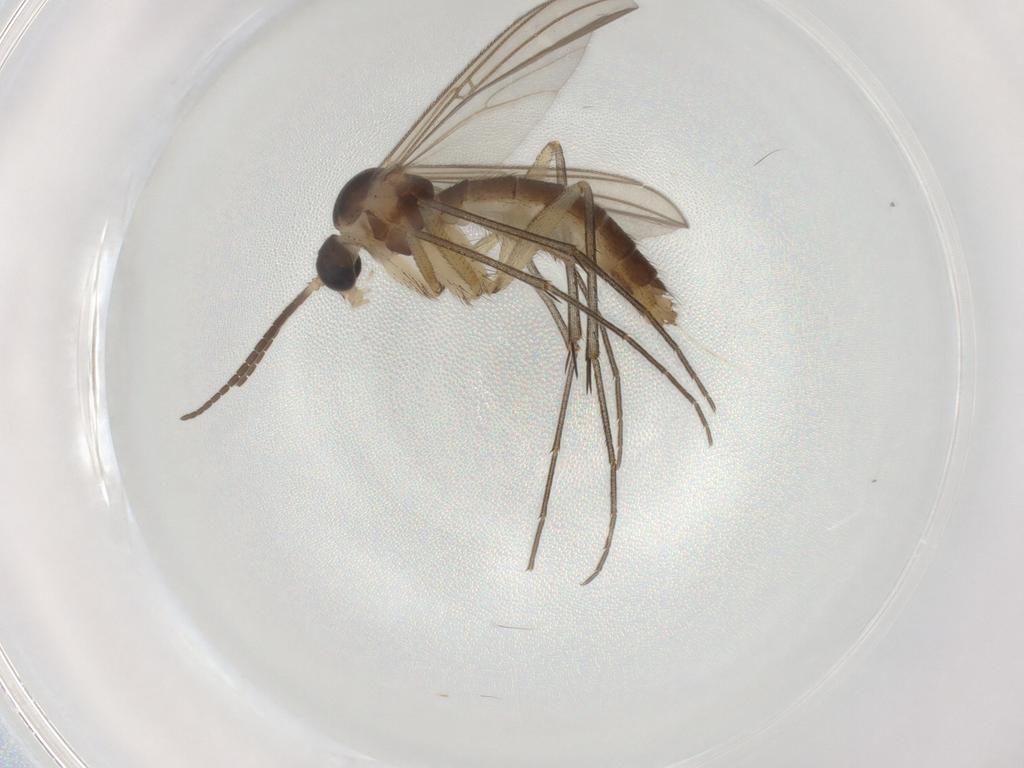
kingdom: Animalia
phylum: Arthropoda
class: Insecta
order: Diptera
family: Mycetophilidae
